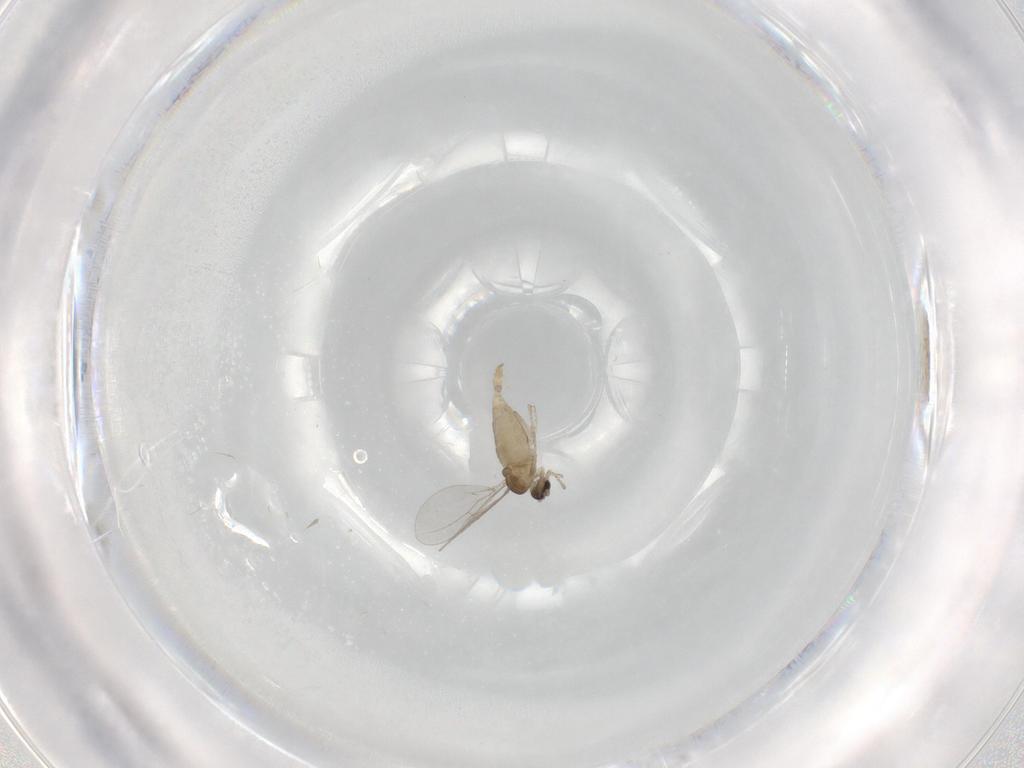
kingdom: Animalia
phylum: Arthropoda
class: Insecta
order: Diptera
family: Cecidomyiidae
